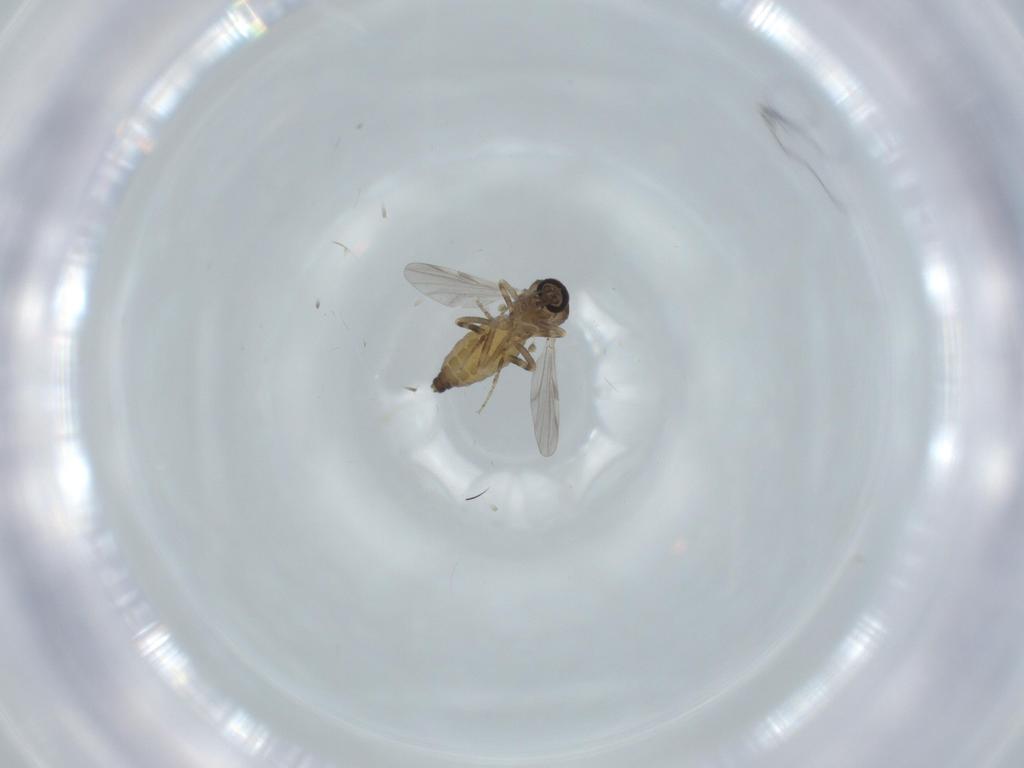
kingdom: Animalia
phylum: Arthropoda
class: Insecta
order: Diptera
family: Ceratopogonidae
